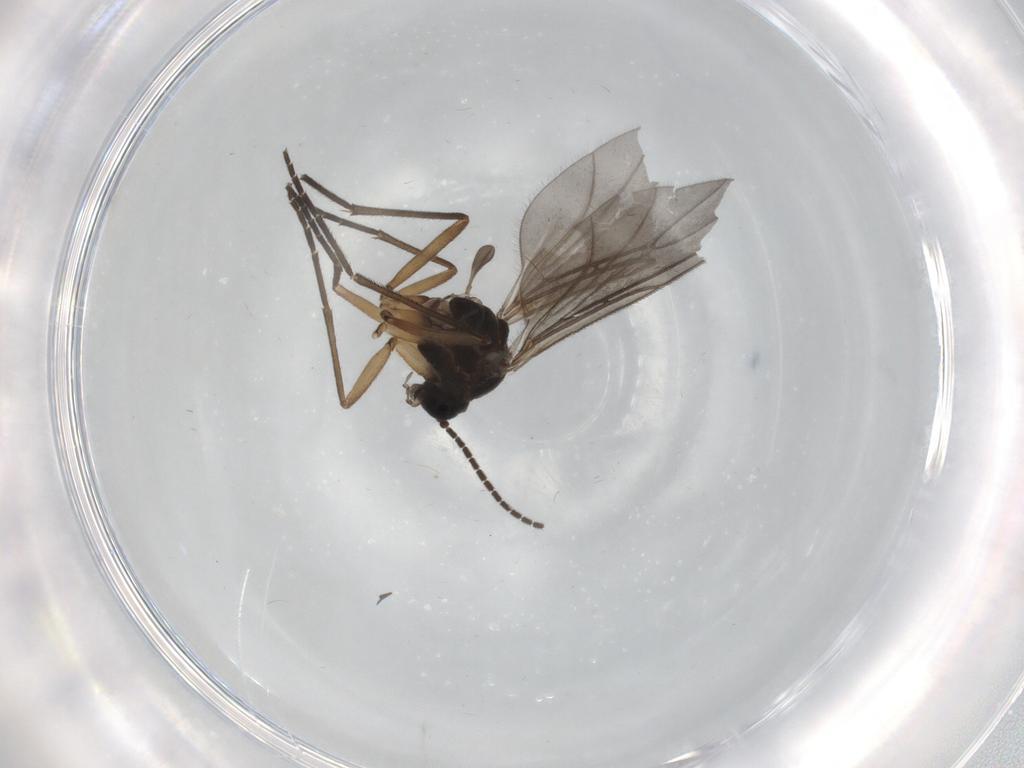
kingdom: Animalia
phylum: Arthropoda
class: Insecta
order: Diptera
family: Sciaridae
